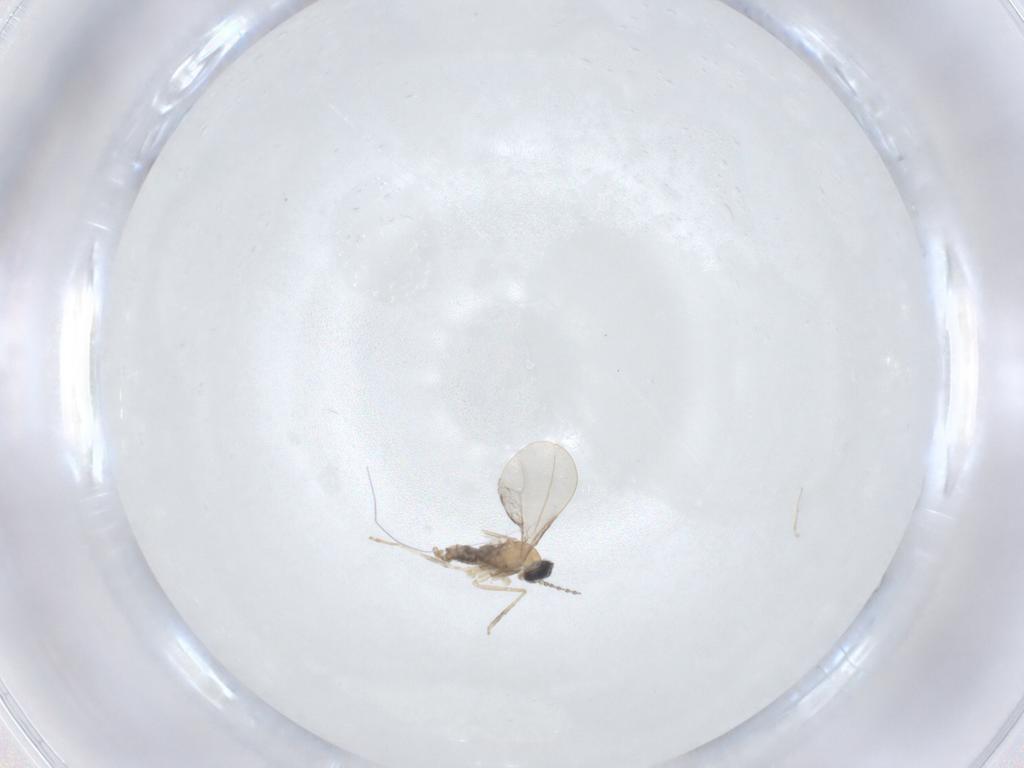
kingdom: Animalia
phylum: Arthropoda
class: Insecta
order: Diptera
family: Cecidomyiidae
